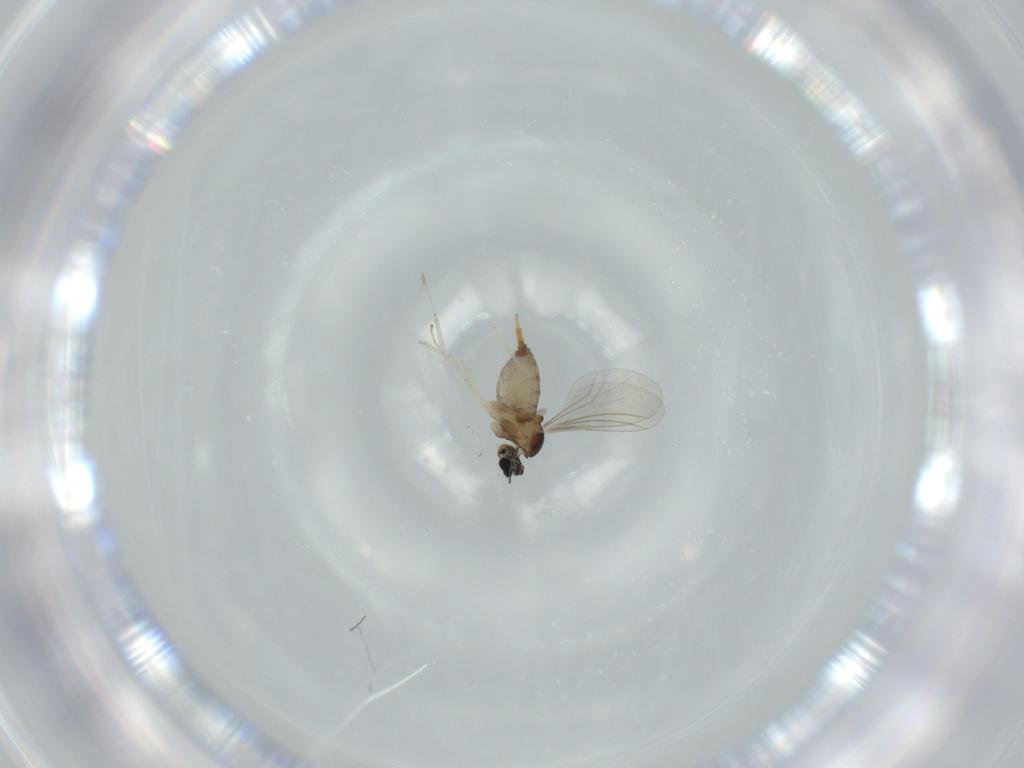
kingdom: Animalia
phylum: Arthropoda
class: Insecta
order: Diptera
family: Cecidomyiidae
